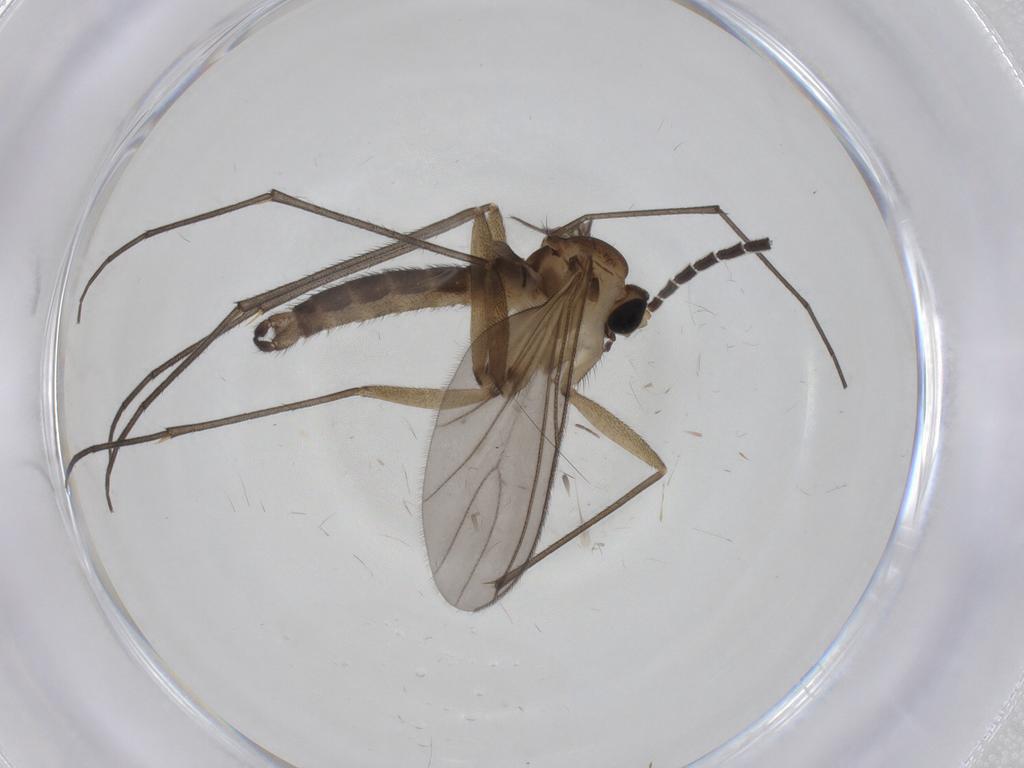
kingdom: Animalia
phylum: Arthropoda
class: Insecta
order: Diptera
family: Sciaridae
